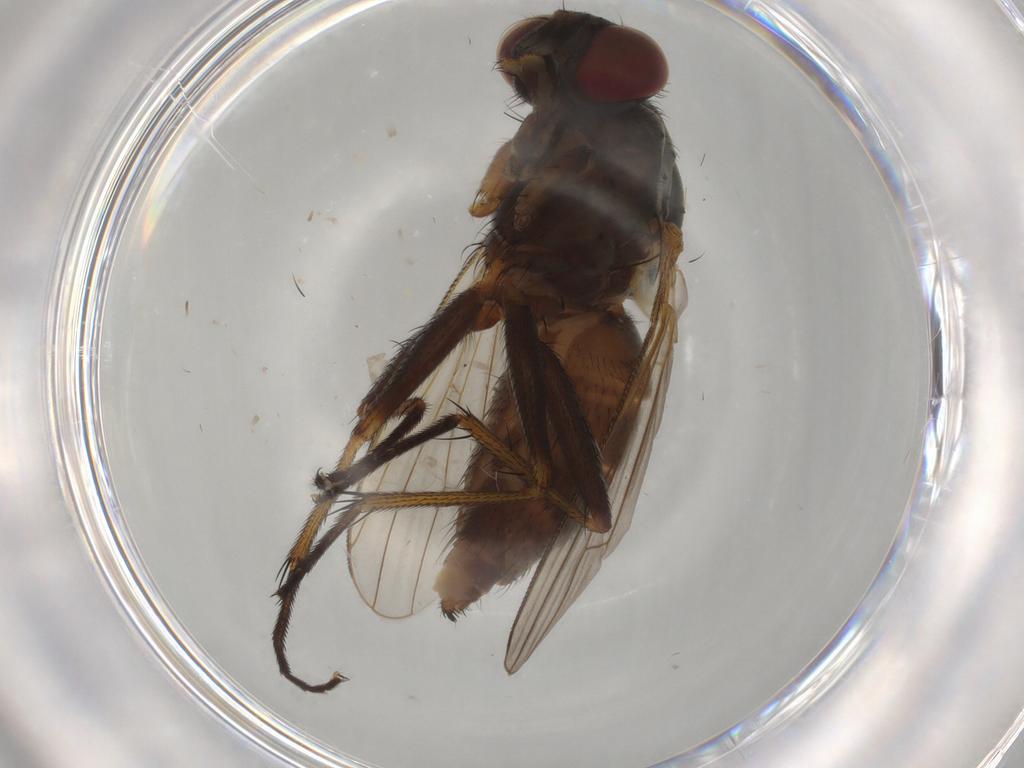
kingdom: Animalia
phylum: Arthropoda
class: Insecta
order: Diptera
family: Muscidae
